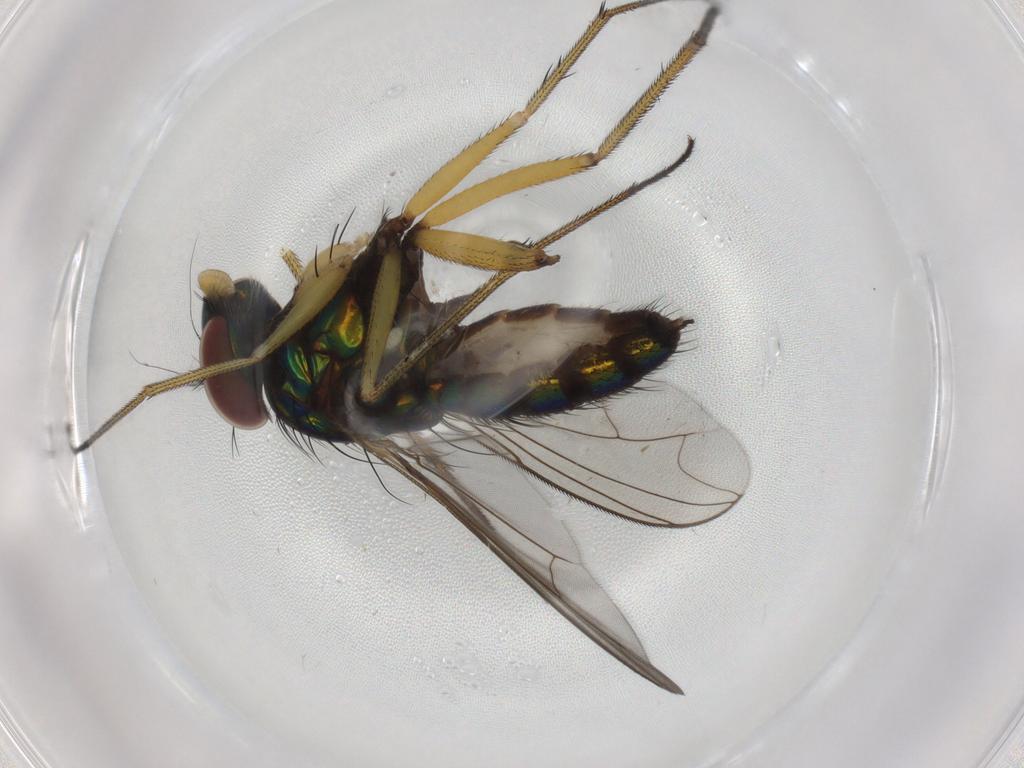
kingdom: Animalia
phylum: Arthropoda
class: Insecta
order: Diptera
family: Dolichopodidae
